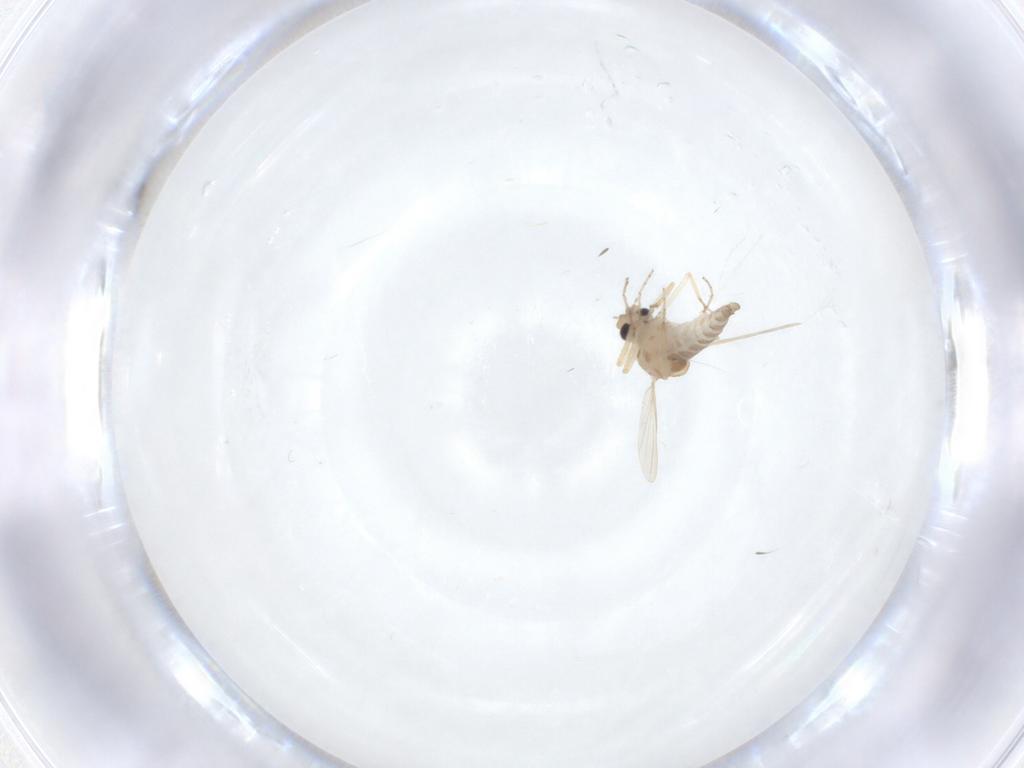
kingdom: Animalia
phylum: Arthropoda
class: Insecta
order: Diptera
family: Ceratopogonidae
